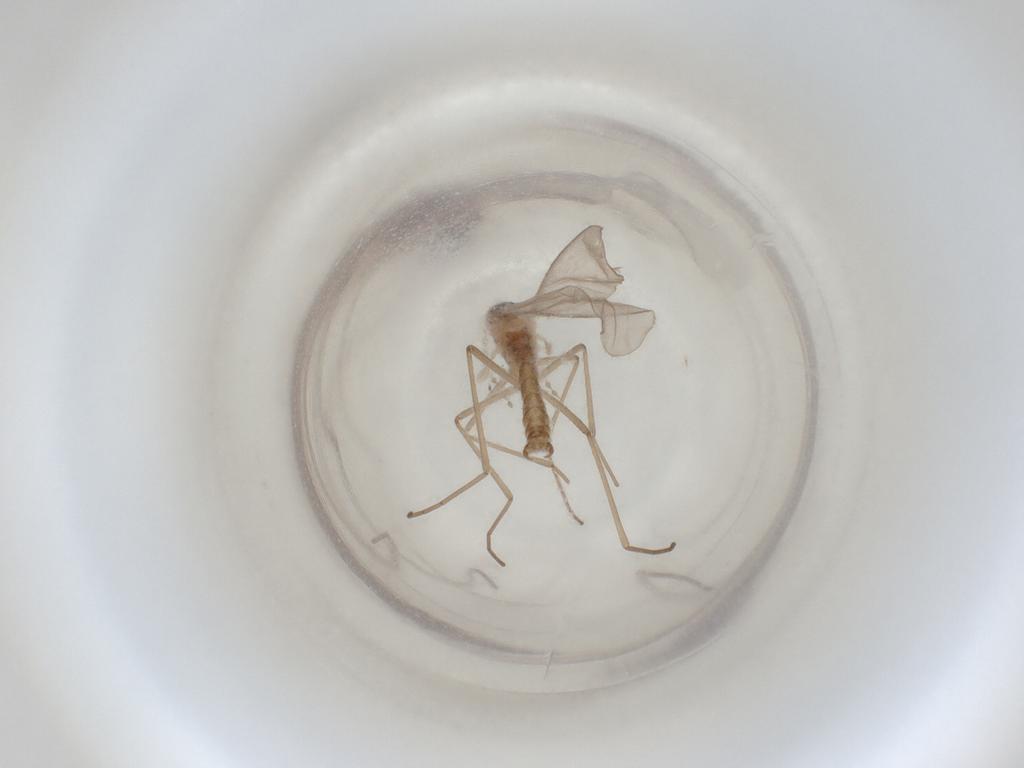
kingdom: Animalia
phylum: Arthropoda
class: Insecta
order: Diptera
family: Cecidomyiidae
